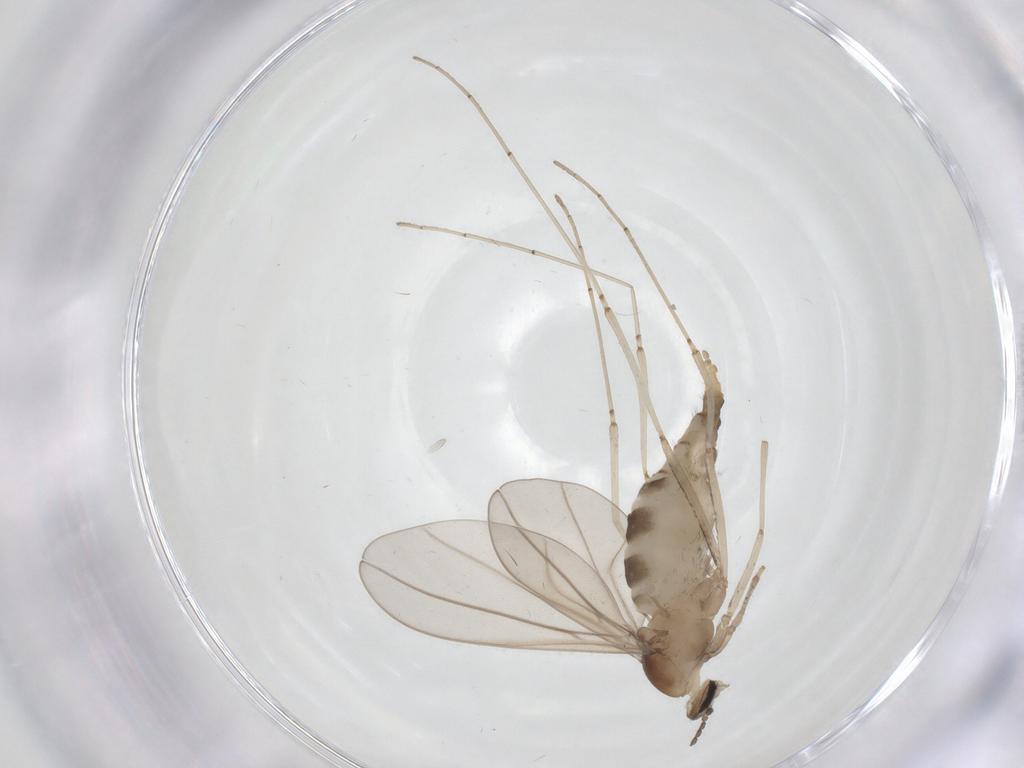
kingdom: Animalia
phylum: Arthropoda
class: Insecta
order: Diptera
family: Cecidomyiidae
